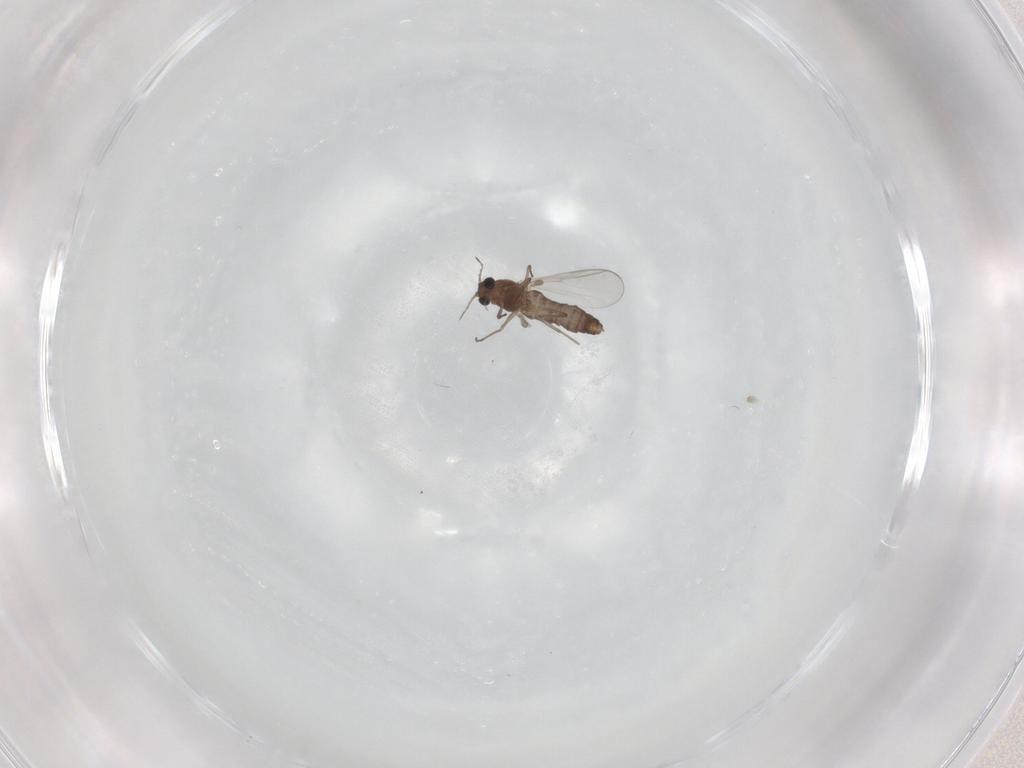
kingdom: Animalia
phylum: Arthropoda
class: Insecta
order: Diptera
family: Chironomidae
